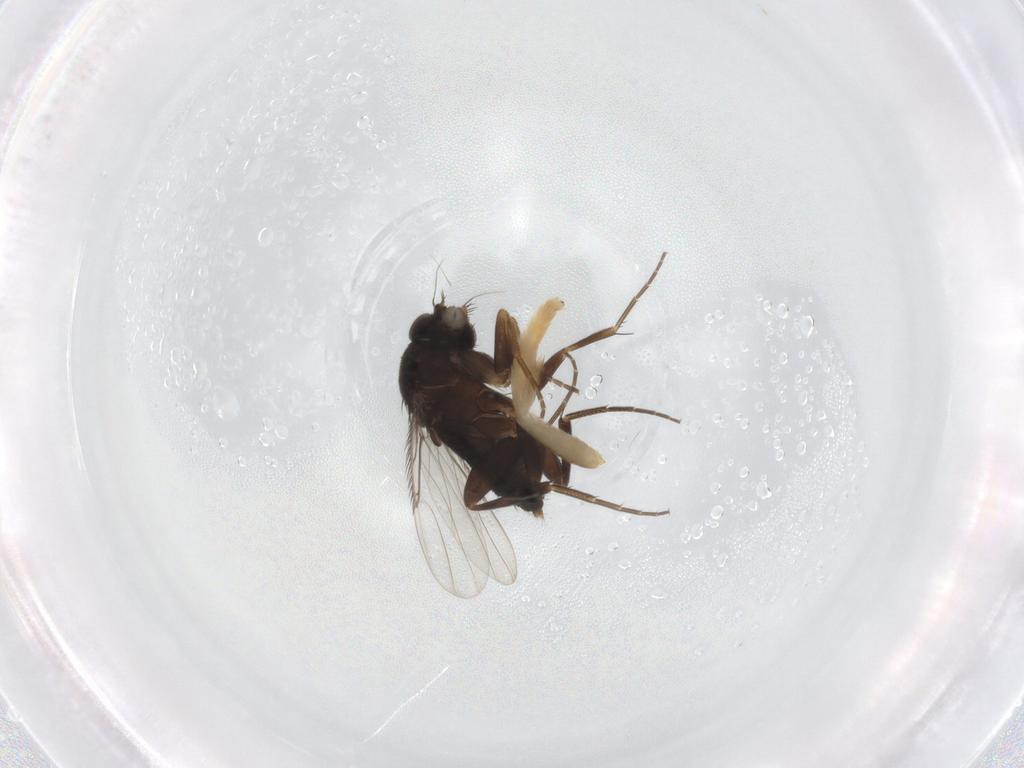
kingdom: Animalia
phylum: Arthropoda
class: Insecta
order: Diptera
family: Phoridae
